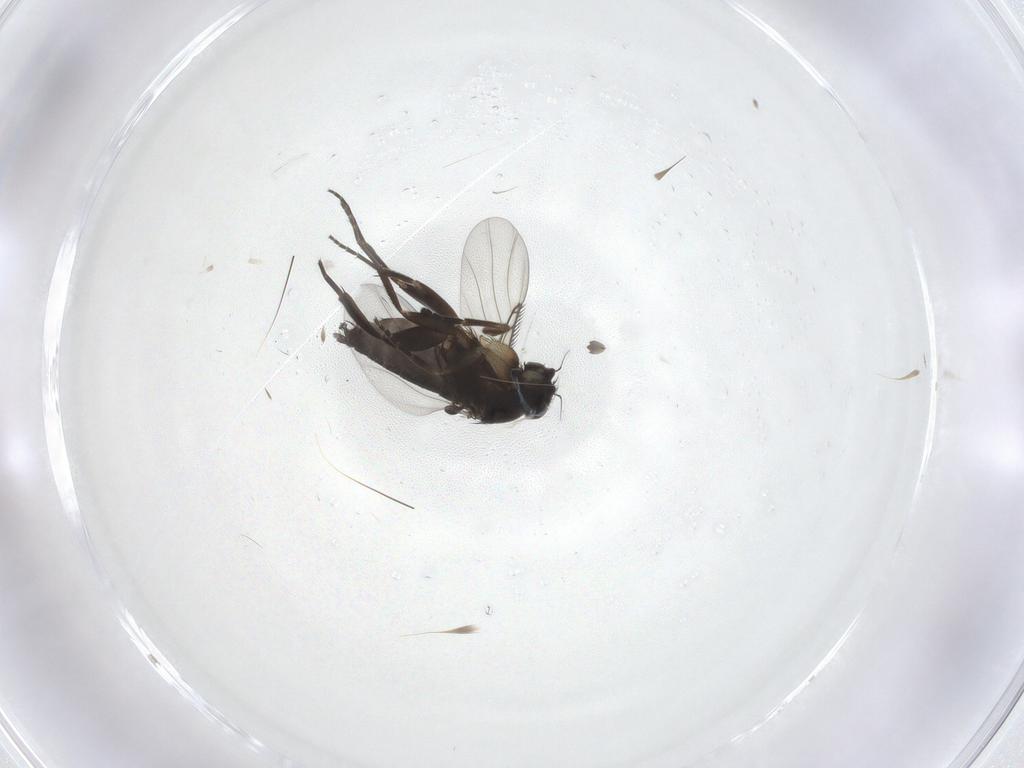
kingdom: Animalia
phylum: Arthropoda
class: Insecta
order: Diptera
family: Phoridae
